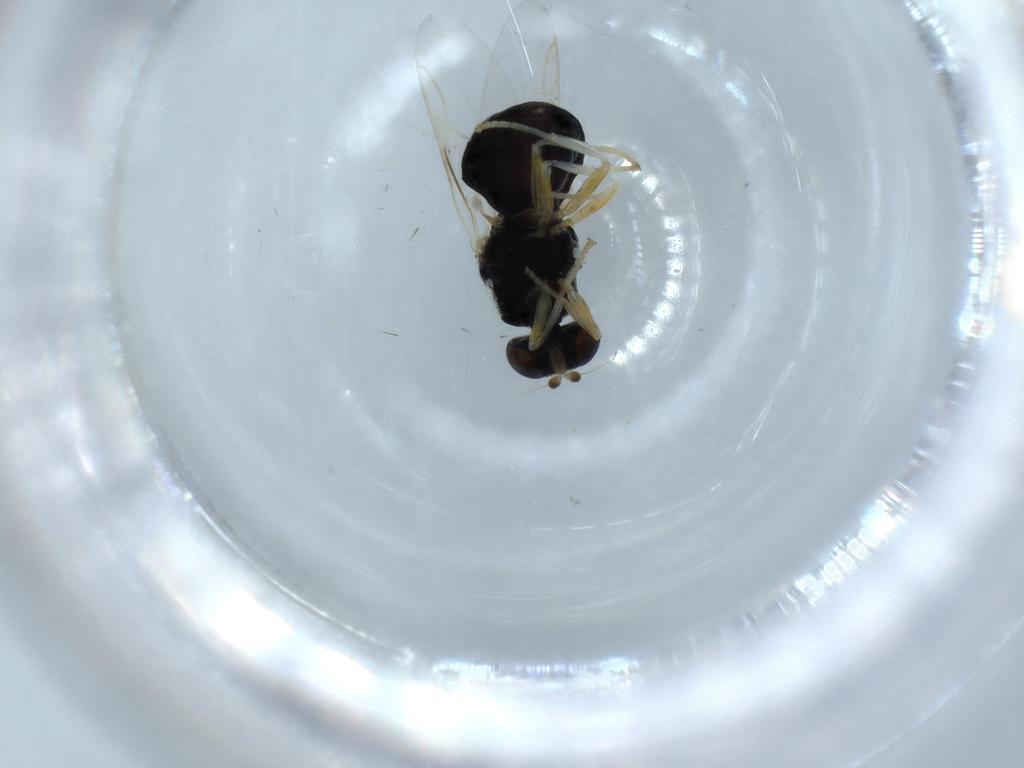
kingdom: Animalia
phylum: Arthropoda
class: Insecta
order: Diptera
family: Stratiomyidae
